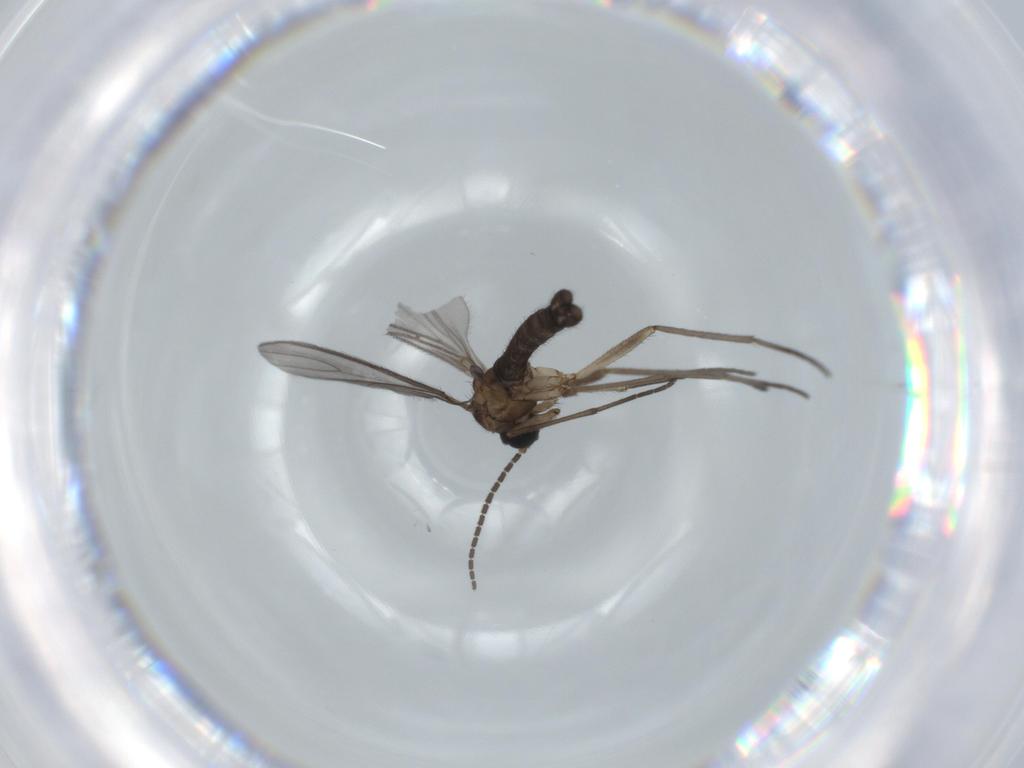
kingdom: Animalia
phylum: Arthropoda
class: Insecta
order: Diptera
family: Sciaridae
